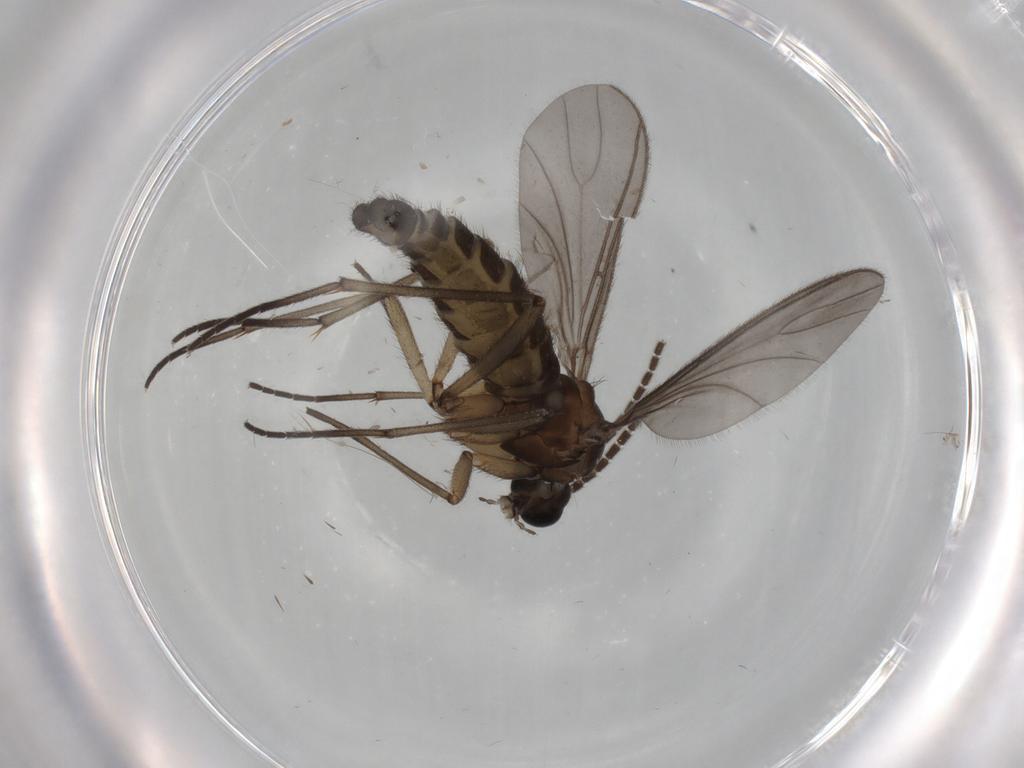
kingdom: Animalia
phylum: Arthropoda
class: Insecta
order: Diptera
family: Sciaridae
